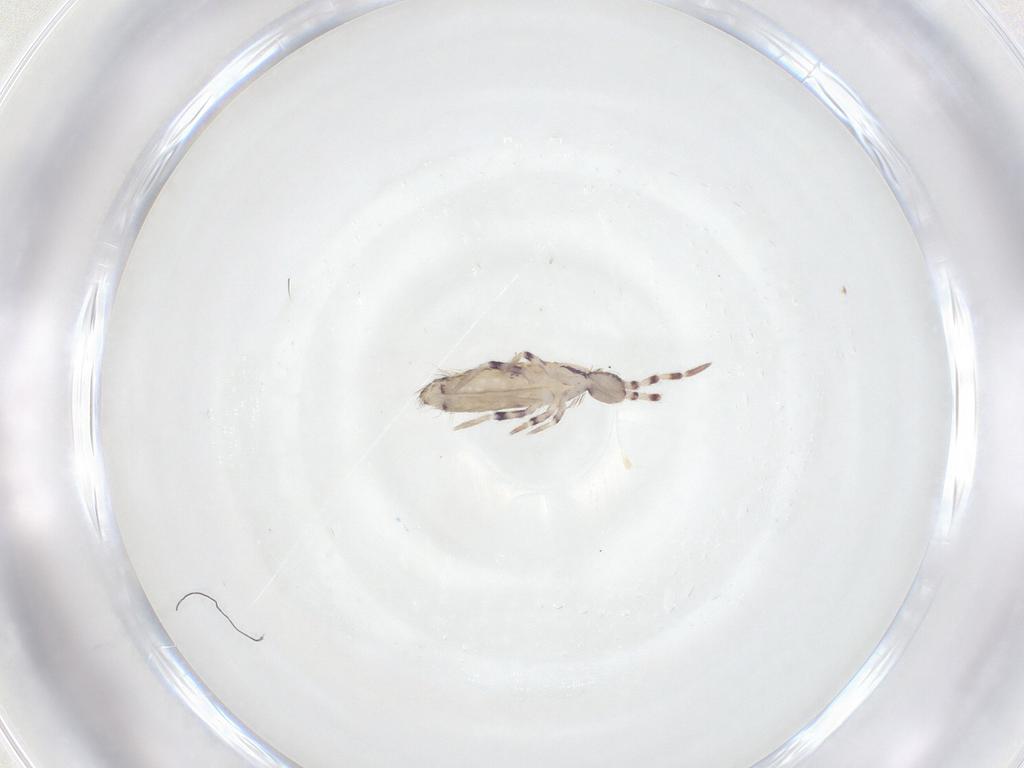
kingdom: Animalia
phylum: Arthropoda
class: Collembola
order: Entomobryomorpha
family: Entomobryidae
